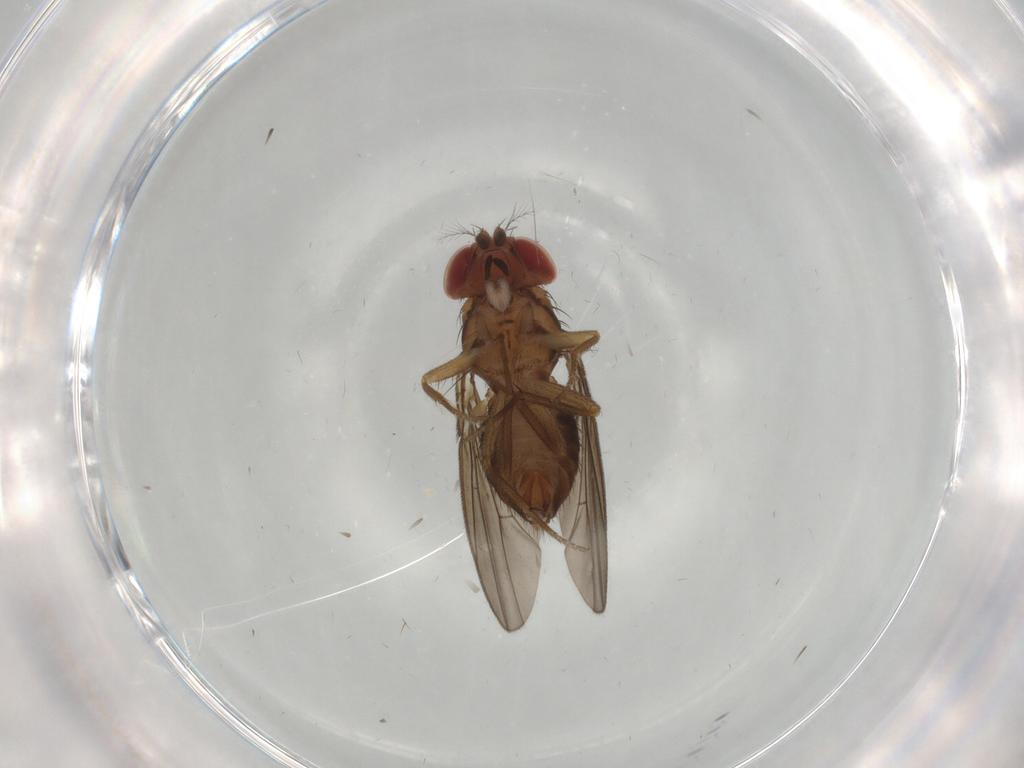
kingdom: Animalia
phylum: Arthropoda
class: Insecta
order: Diptera
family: Drosophilidae
